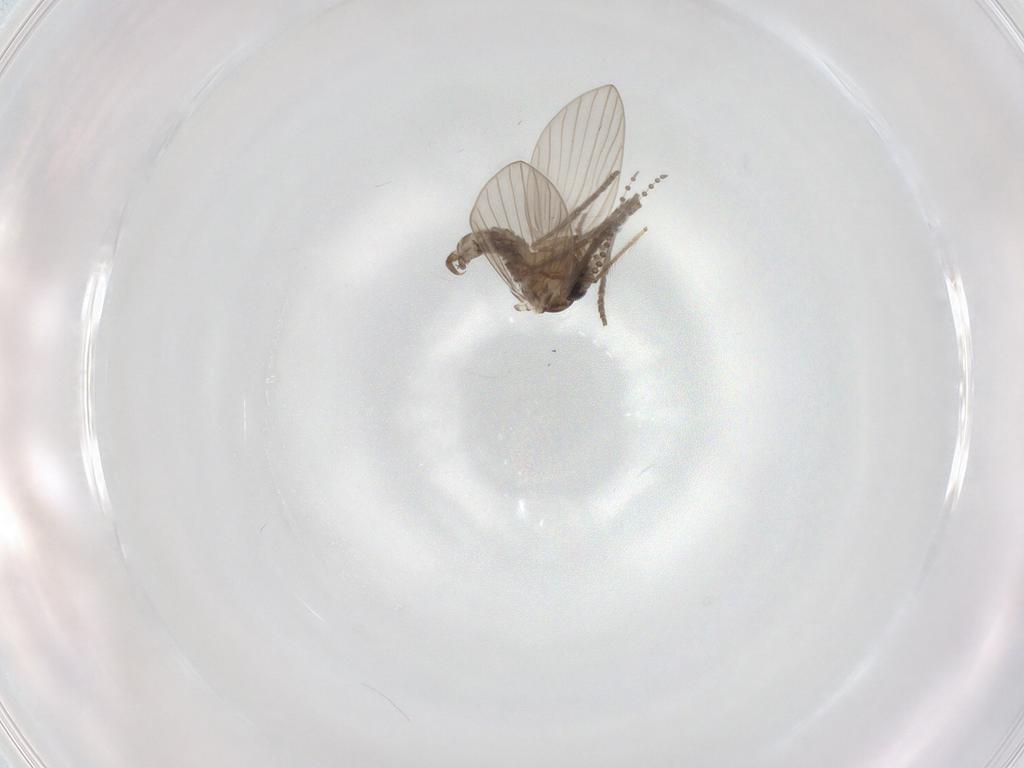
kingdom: Animalia
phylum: Arthropoda
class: Insecta
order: Diptera
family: Psychodidae
